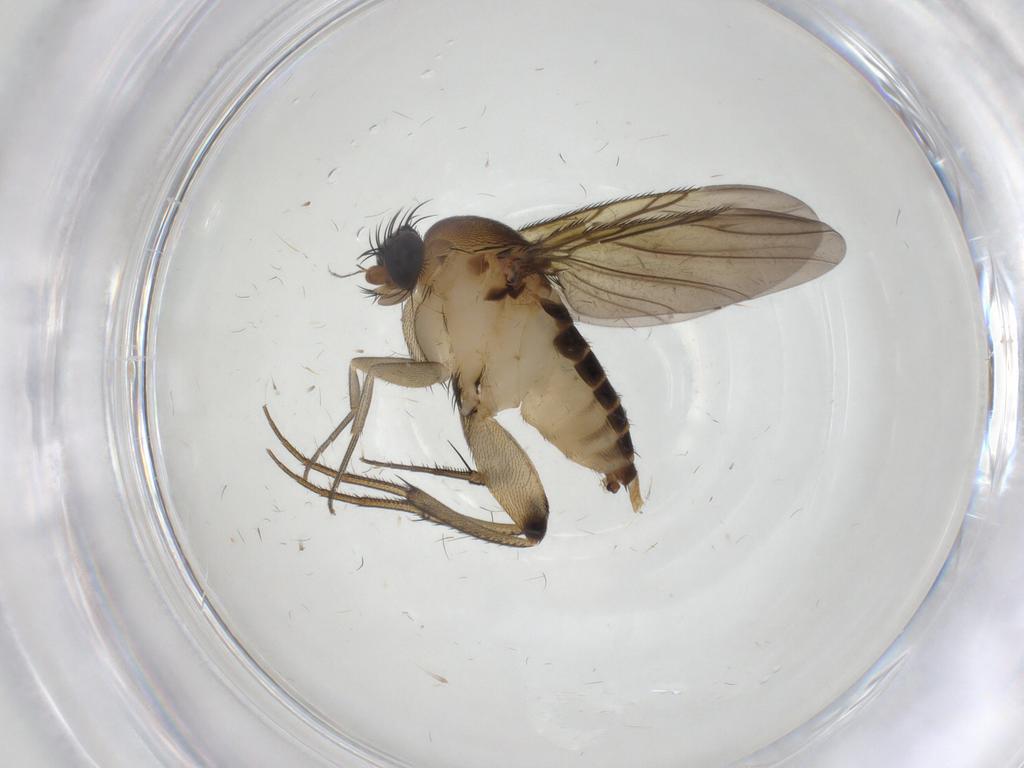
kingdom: Animalia
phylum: Arthropoda
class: Insecta
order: Diptera
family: Phoridae
